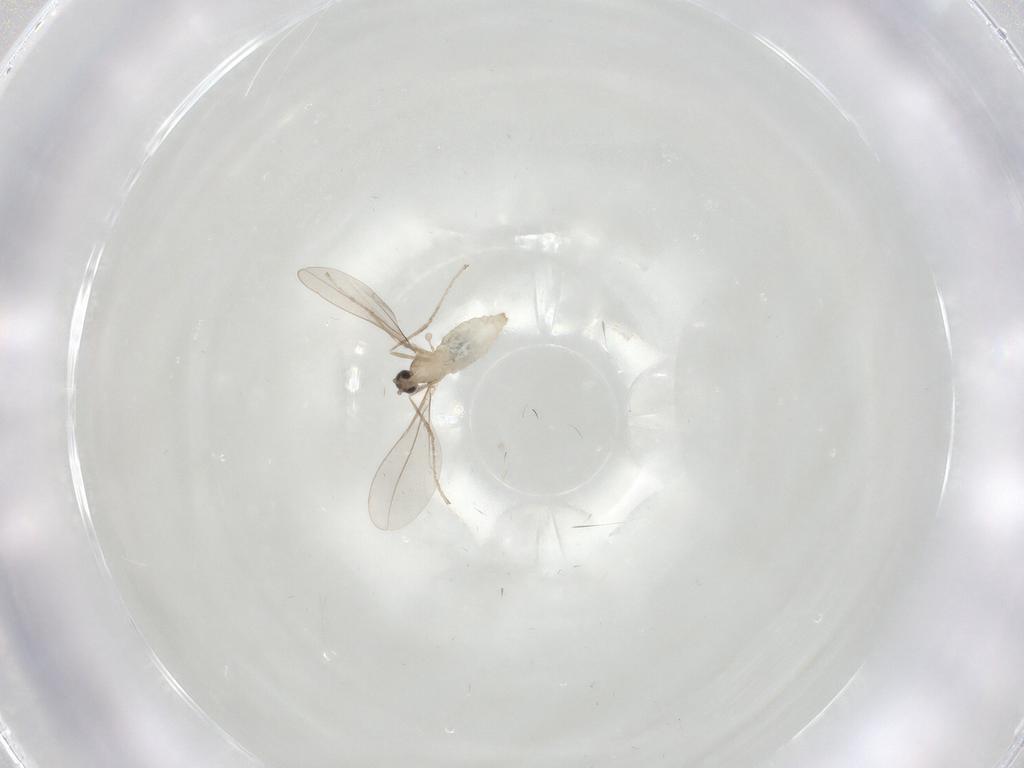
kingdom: Animalia
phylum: Arthropoda
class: Insecta
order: Diptera
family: Cecidomyiidae
